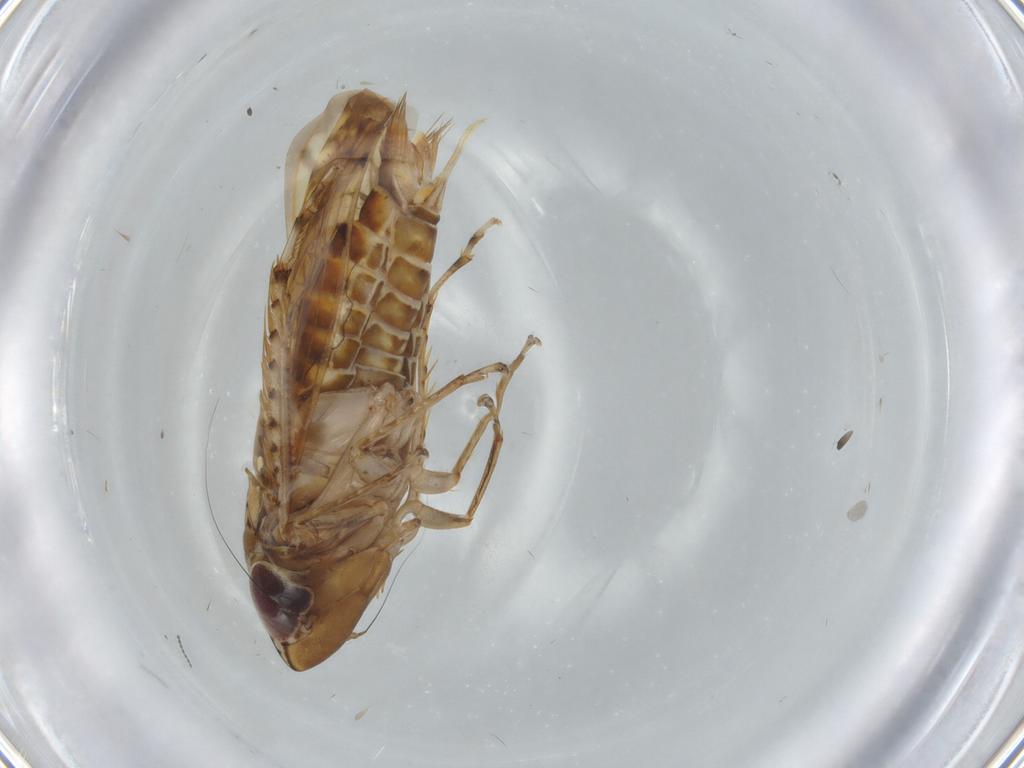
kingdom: Animalia
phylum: Arthropoda
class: Insecta
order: Hemiptera
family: Cicadellidae
